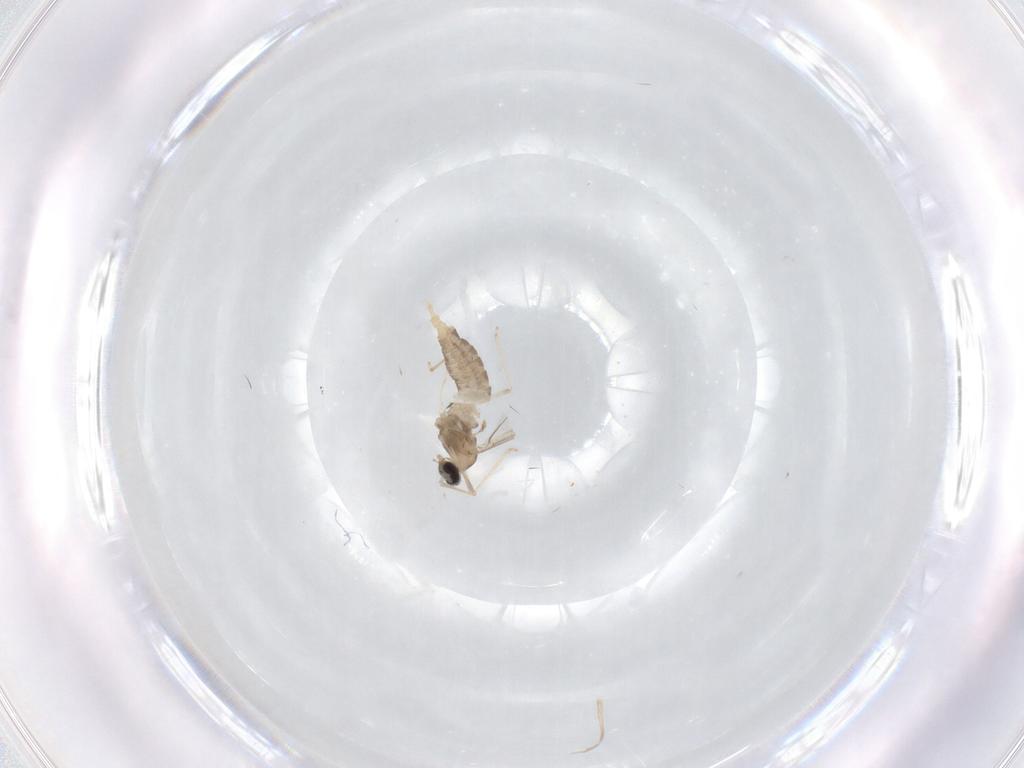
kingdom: Animalia
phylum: Arthropoda
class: Insecta
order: Diptera
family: Cecidomyiidae
